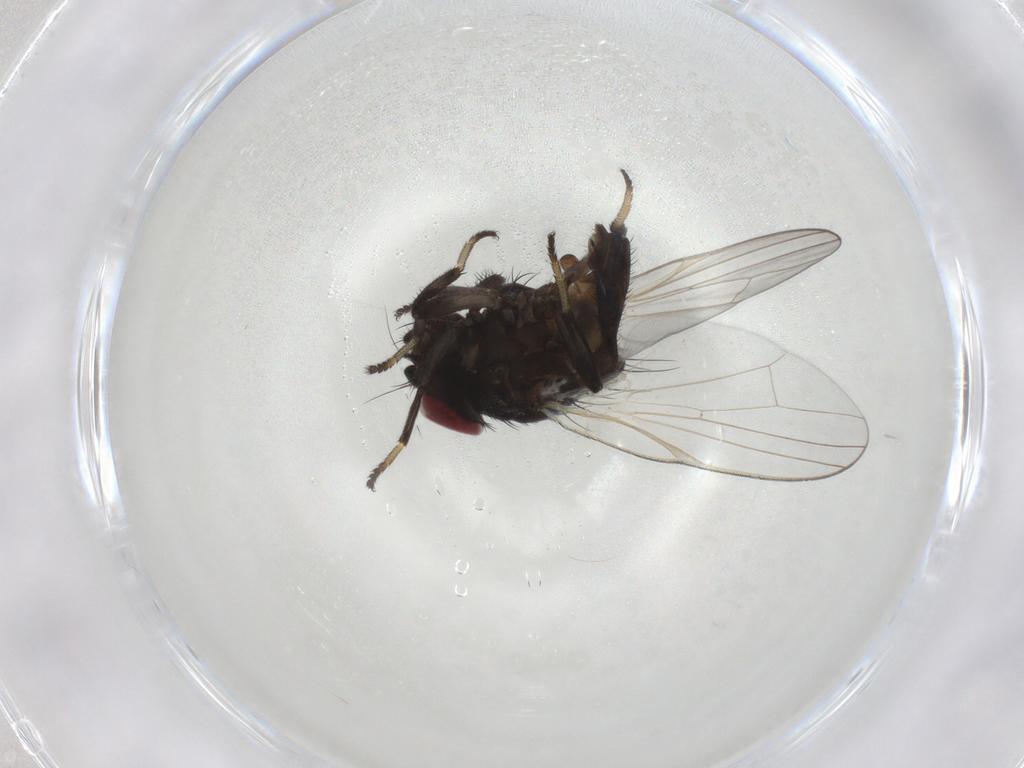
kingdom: Animalia
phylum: Arthropoda
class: Insecta
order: Diptera
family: Lonchaeidae
